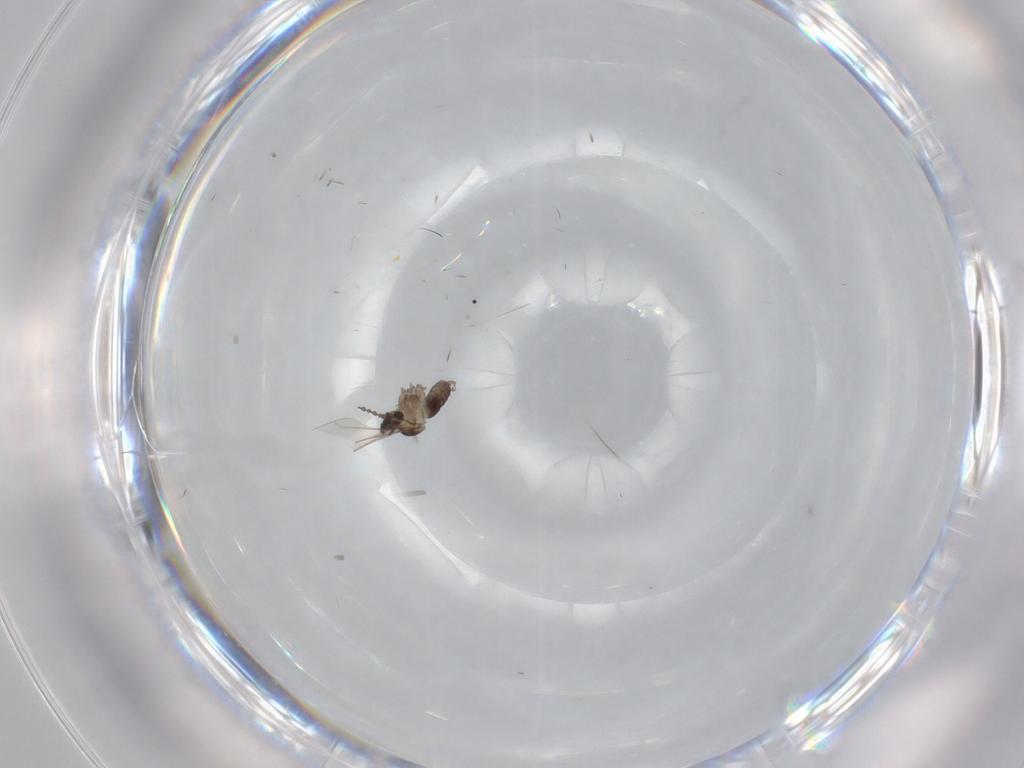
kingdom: Animalia
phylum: Arthropoda
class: Insecta
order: Diptera
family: Cecidomyiidae
